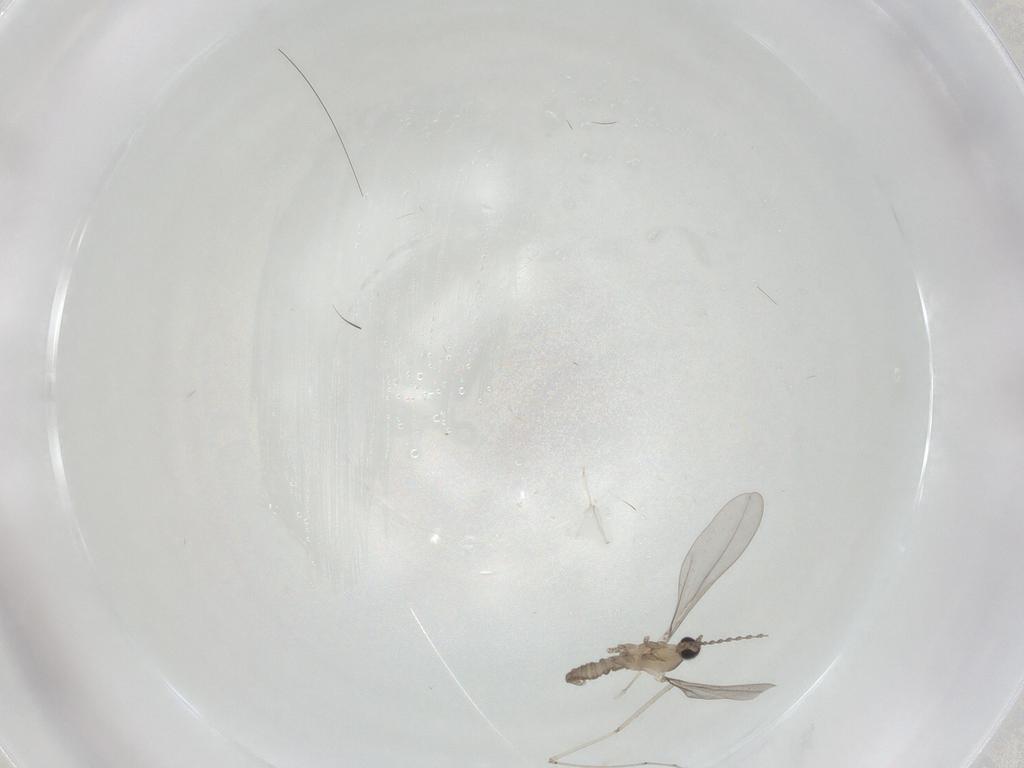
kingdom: Animalia
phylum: Arthropoda
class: Insecta
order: Diptera
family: Cecidomyiidae
